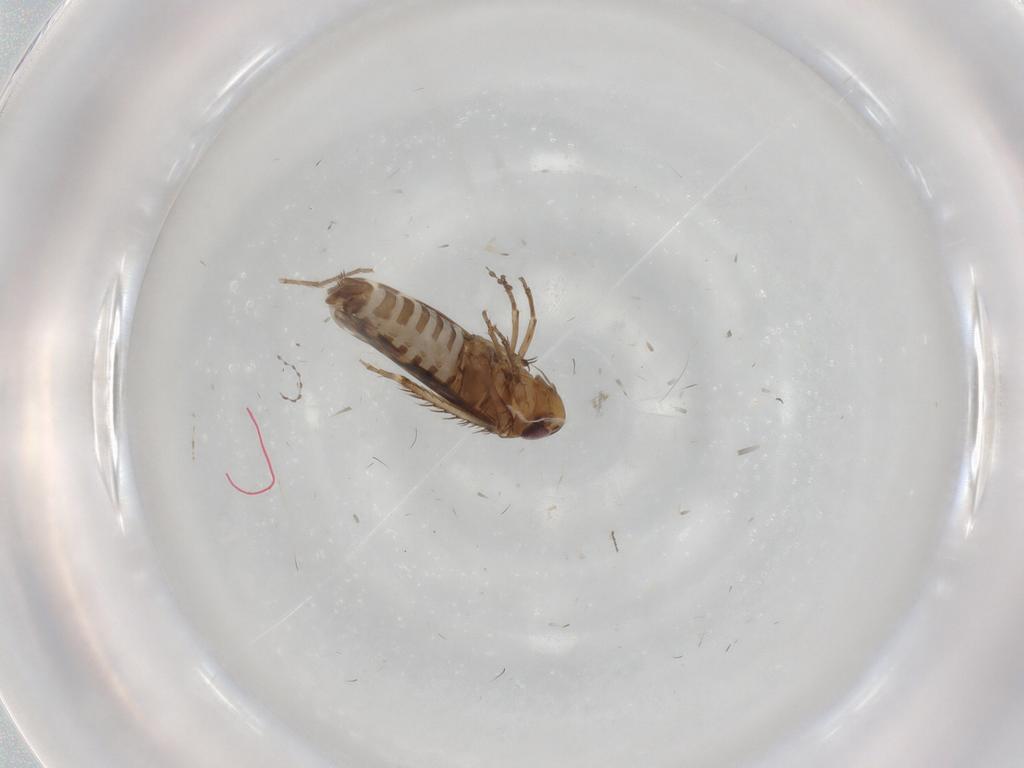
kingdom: Animalia
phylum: Arthropoda
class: Insecta
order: Hemiptera
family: Cicadellidae
